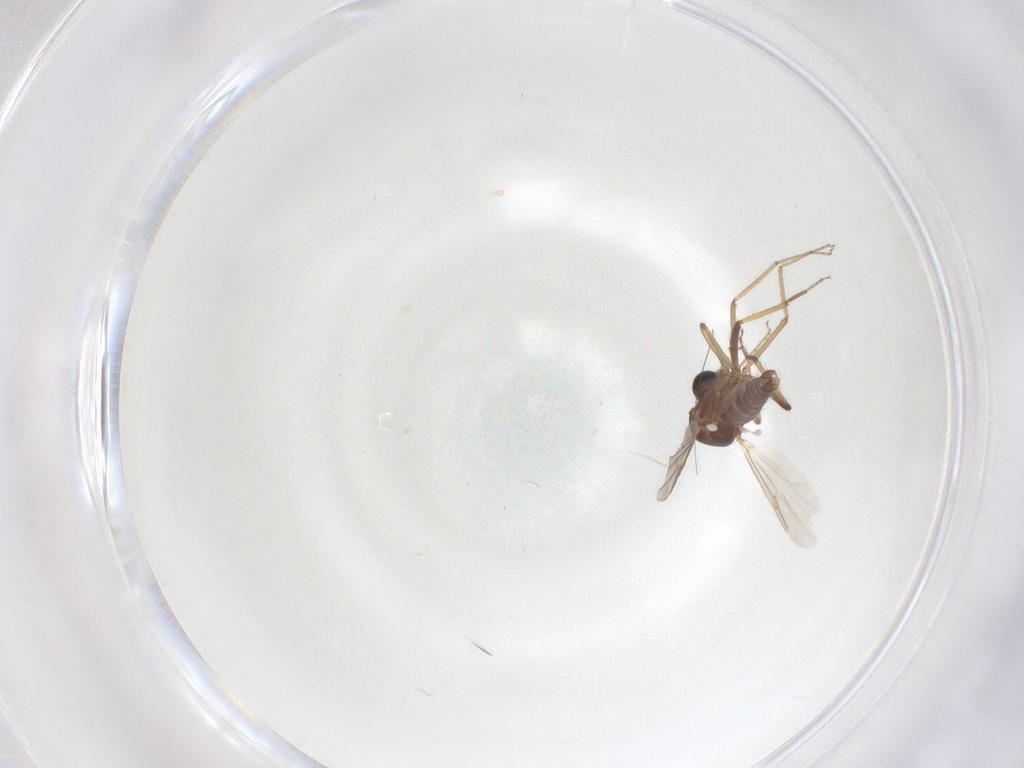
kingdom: Animalia
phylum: Arthropoda
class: Insecta
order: Diptera
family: Ceratopogonidae
